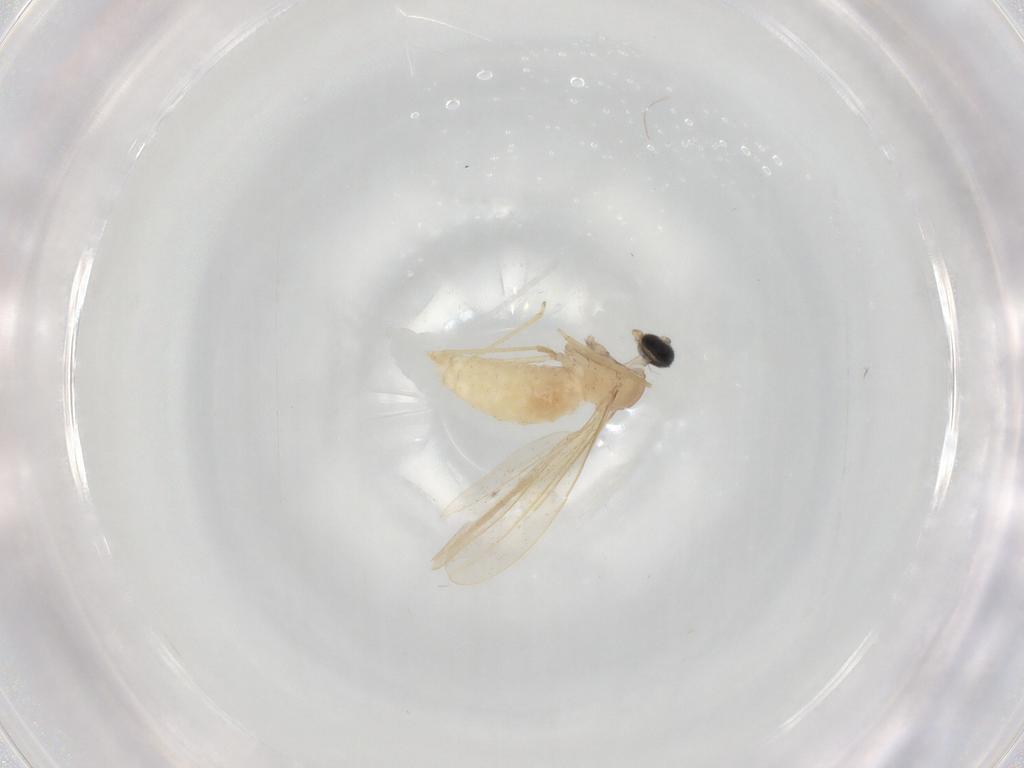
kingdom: Animalia
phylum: Arthropoda
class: Insecta
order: Diptera
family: Cecidomyiidae
